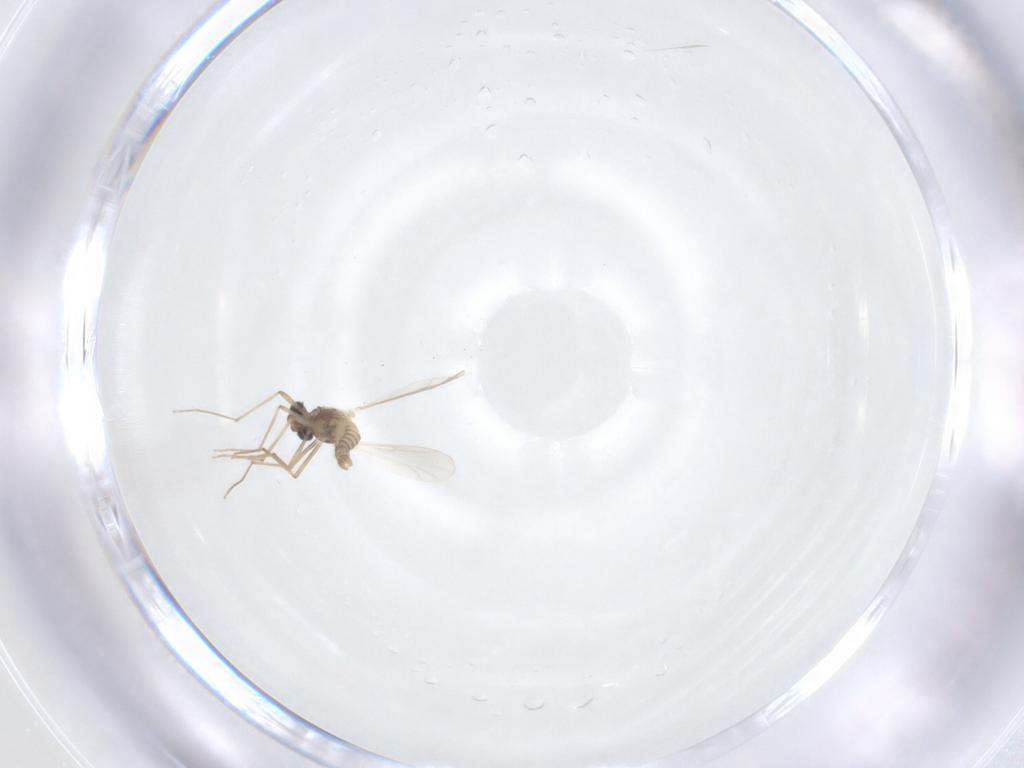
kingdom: Animalia
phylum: Arthropoda
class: Insecta
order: Diptera
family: Chironomidae
